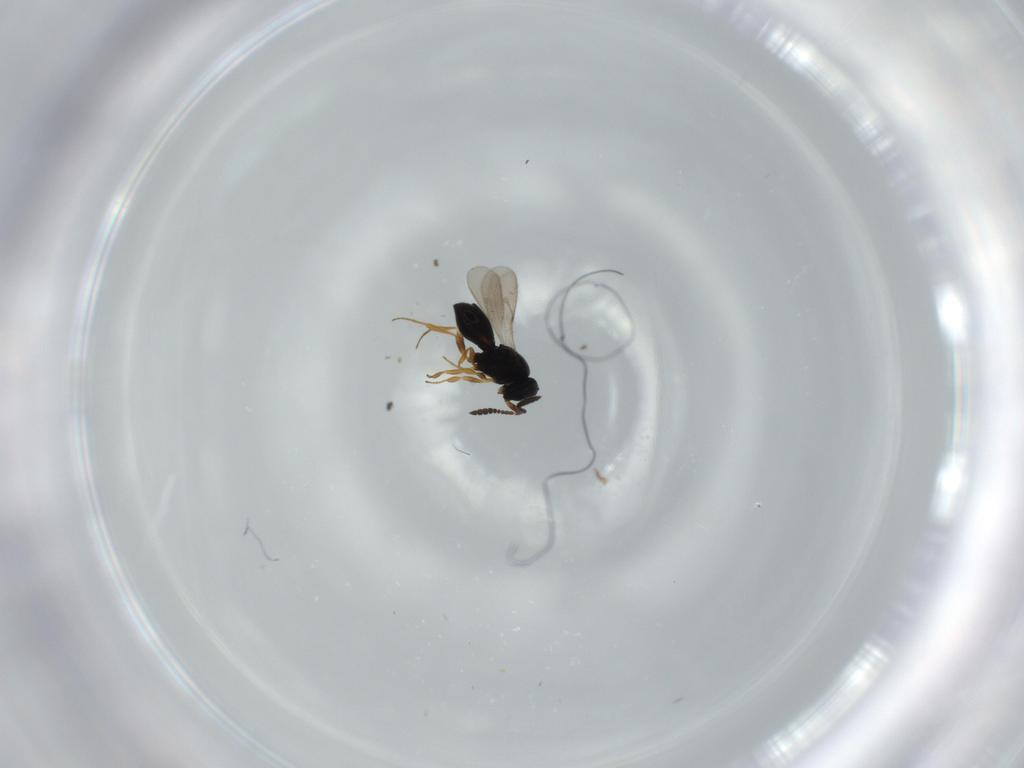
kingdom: Animalia
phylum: Arthropoda
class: Insecta
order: Hymenoptera
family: Scelionidae
